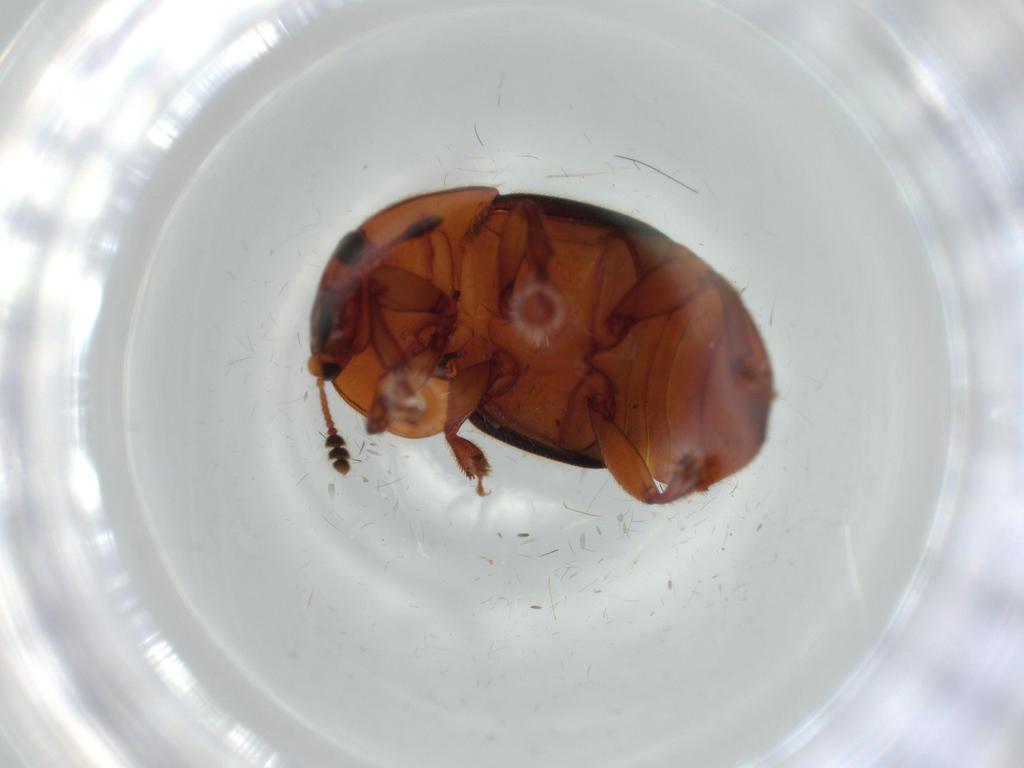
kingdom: Animalia
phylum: Arthropoda
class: Insecta
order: Coleoptera
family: Nitidulidae
